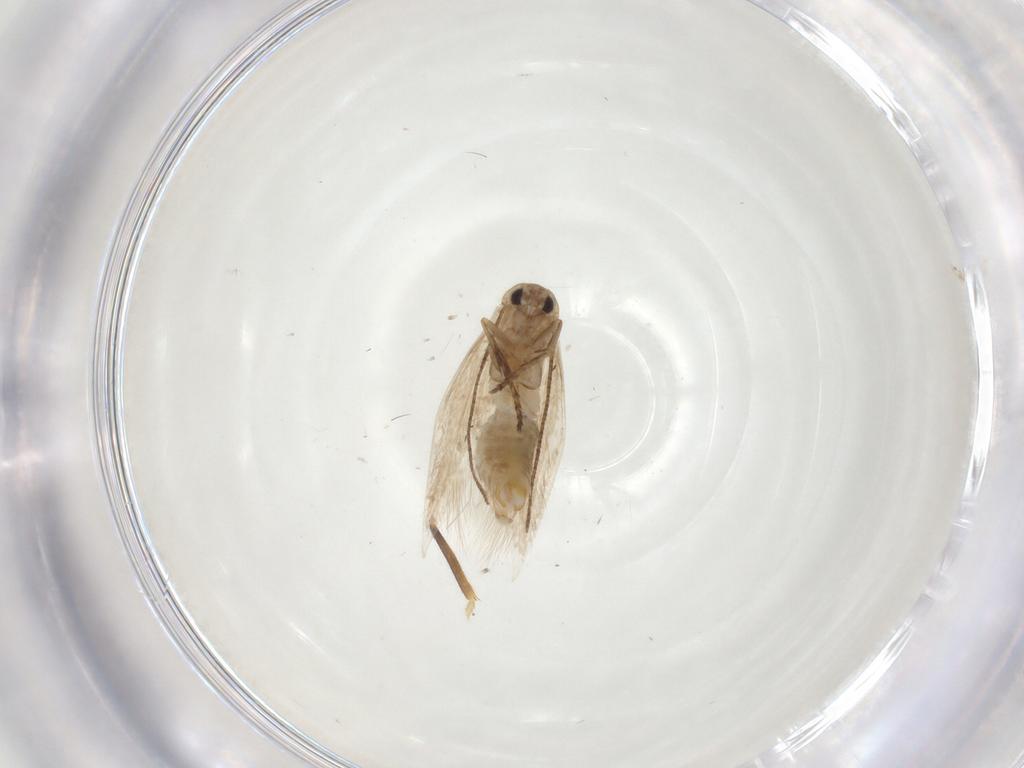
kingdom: Animalia
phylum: Arthropoda
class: Insecta
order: Lepidoptera
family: Bucculatricidae
